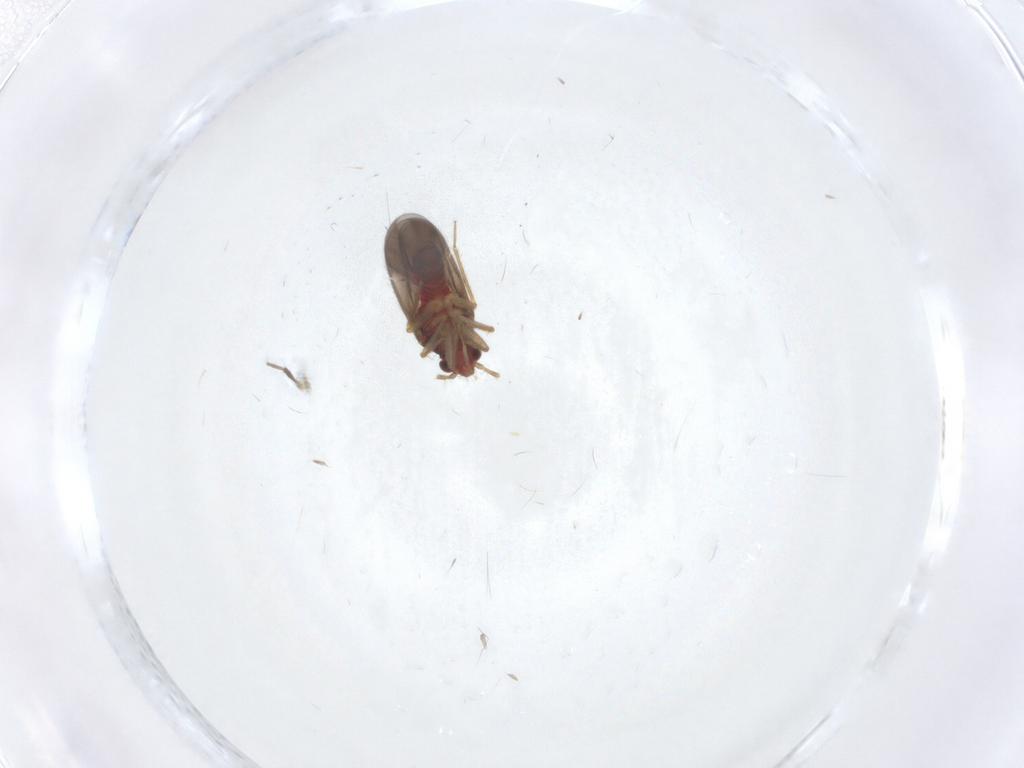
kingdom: Animalia
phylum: Arthropoda
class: Insecta
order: Hemiptera
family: Ceratocombidae
